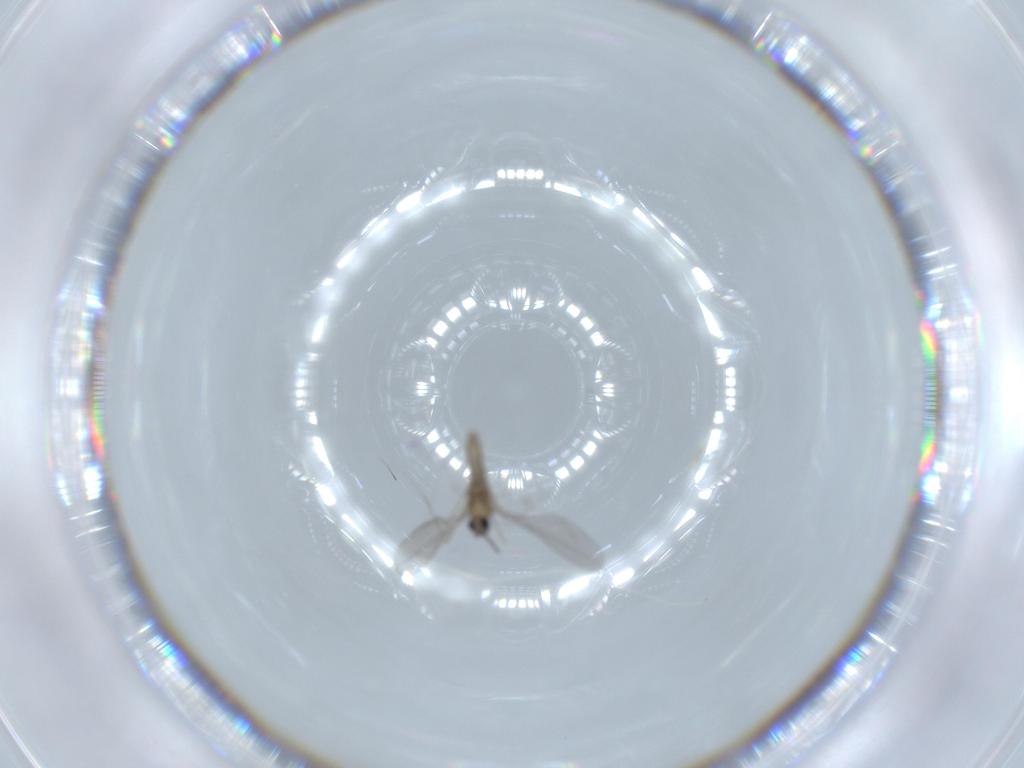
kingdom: Animalia
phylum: Arthropoda
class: Insecta
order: Diptera
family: Cecidomyiidae
